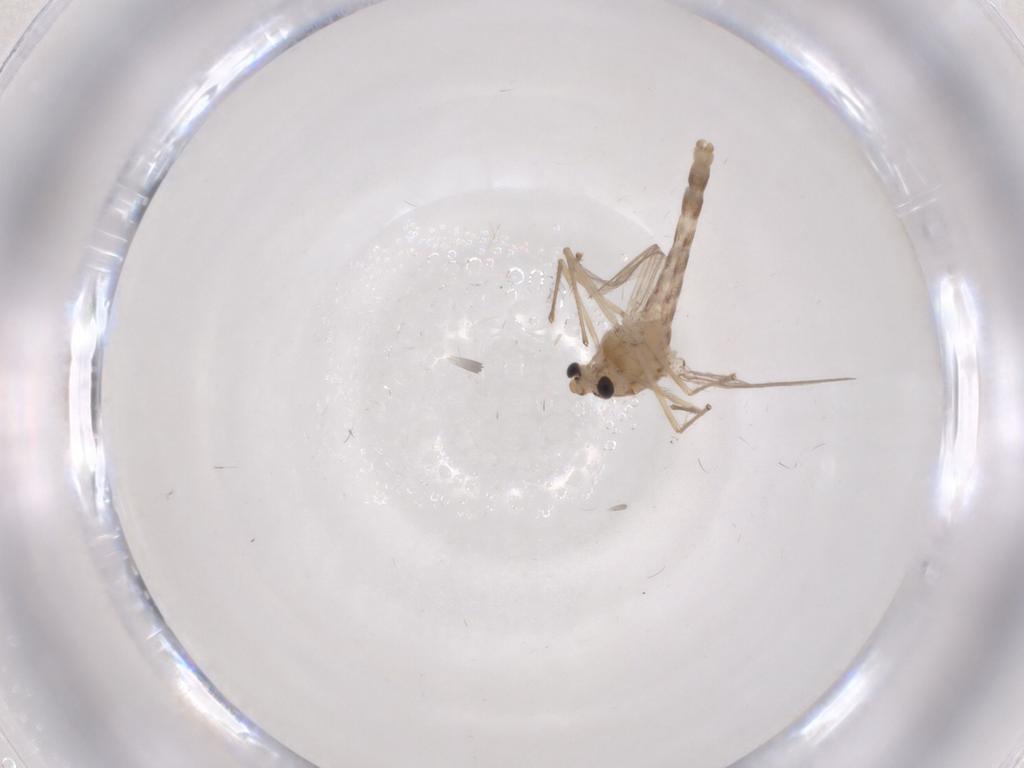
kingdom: Animalia
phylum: Arthropoda
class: Insecta
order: Diptera
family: Chironomidae
